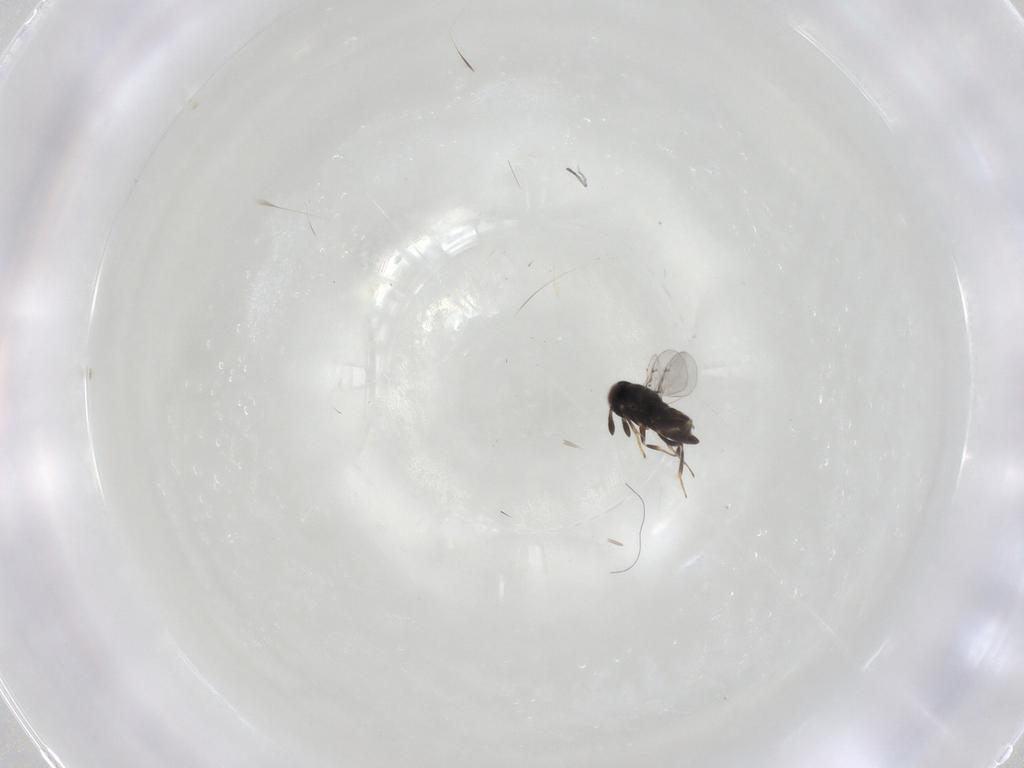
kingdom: Animalia
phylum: Arthropoda
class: Insecta
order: Hymenoptera
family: Aphelinidae
